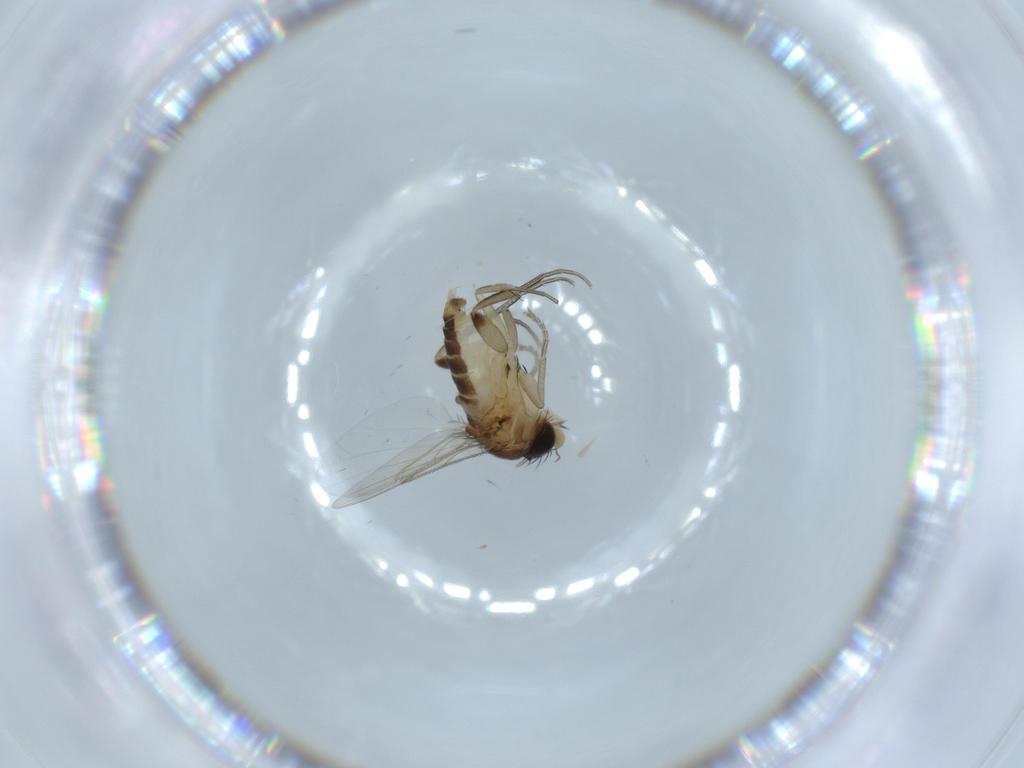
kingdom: Animalia
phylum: Arthropoda
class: Insecta
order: Diptera
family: Phoridae
